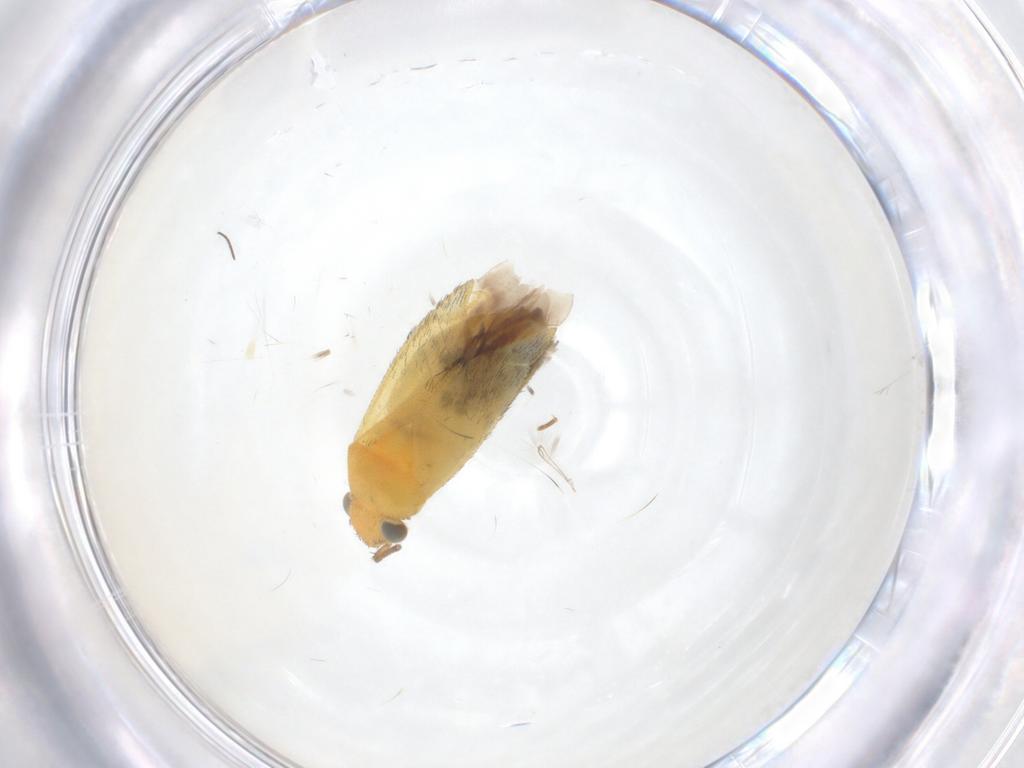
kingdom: Animalia
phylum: Arthropoda
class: Insecta
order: Hemiptera
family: Miridae
